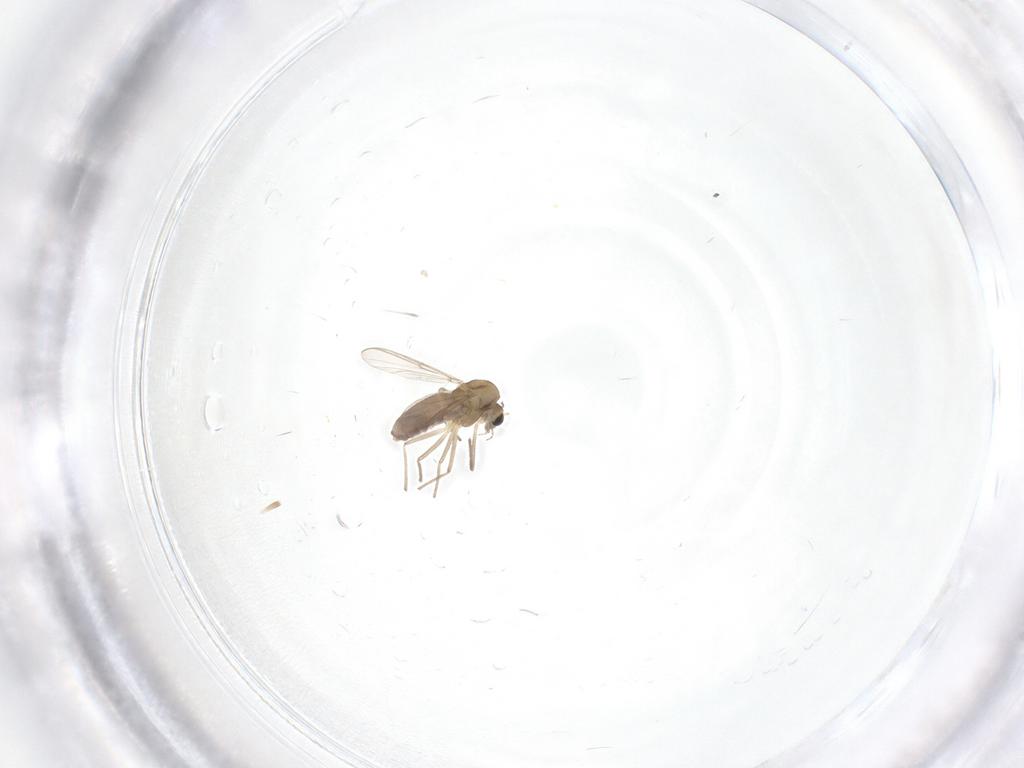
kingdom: Animalia
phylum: Arthropoda
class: Insecta
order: Diptera
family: Chironomidae
